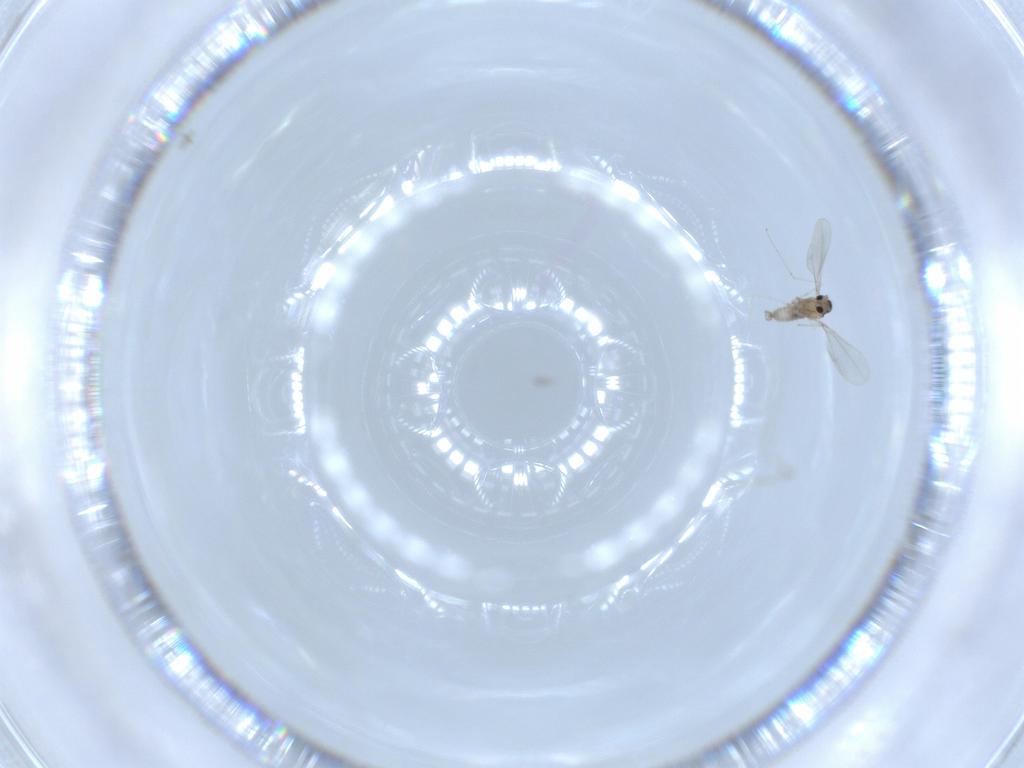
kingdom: Animalia
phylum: Arthropoda
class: Insecta
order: Diptera
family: Cecidomyiidae
